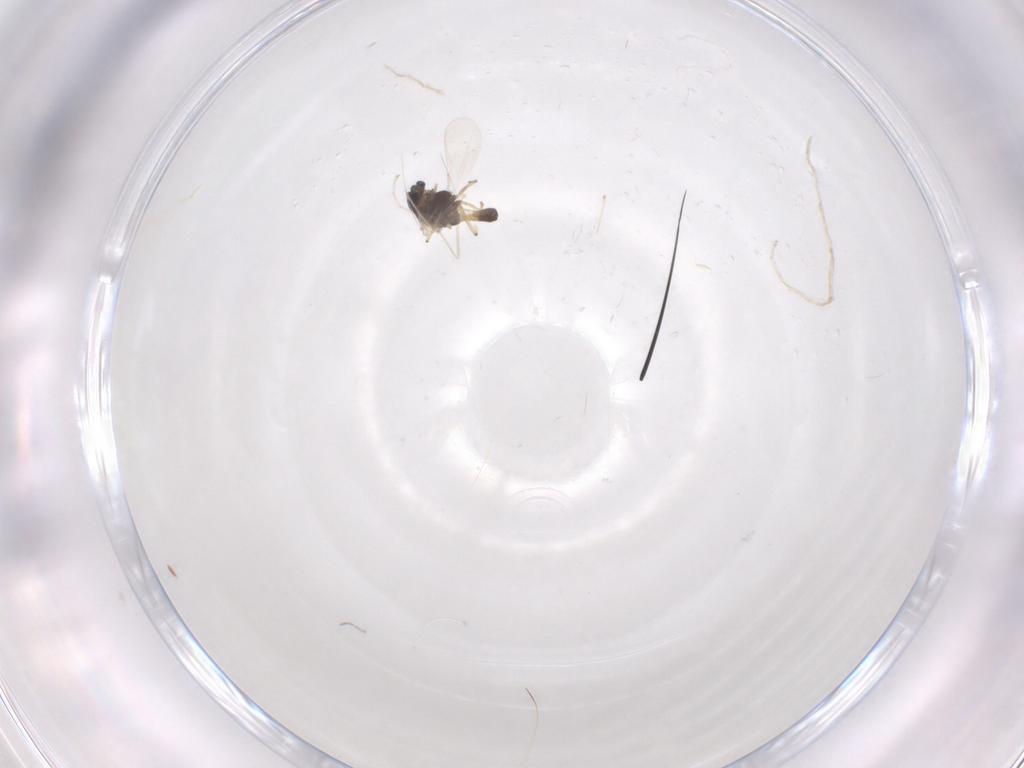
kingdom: Animalia
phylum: Arthropoda
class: Insecta
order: Diptera
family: Chironomidae
